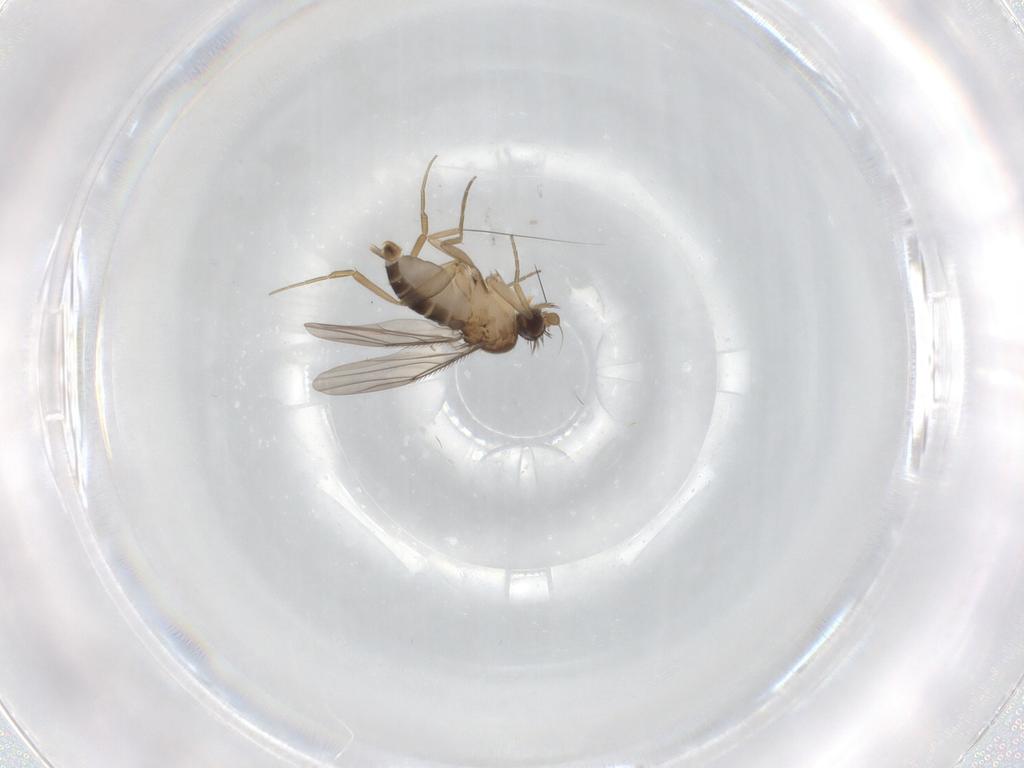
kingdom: Animalia
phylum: Arthropoda
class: Insecta
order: Diptera
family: Phoridae
